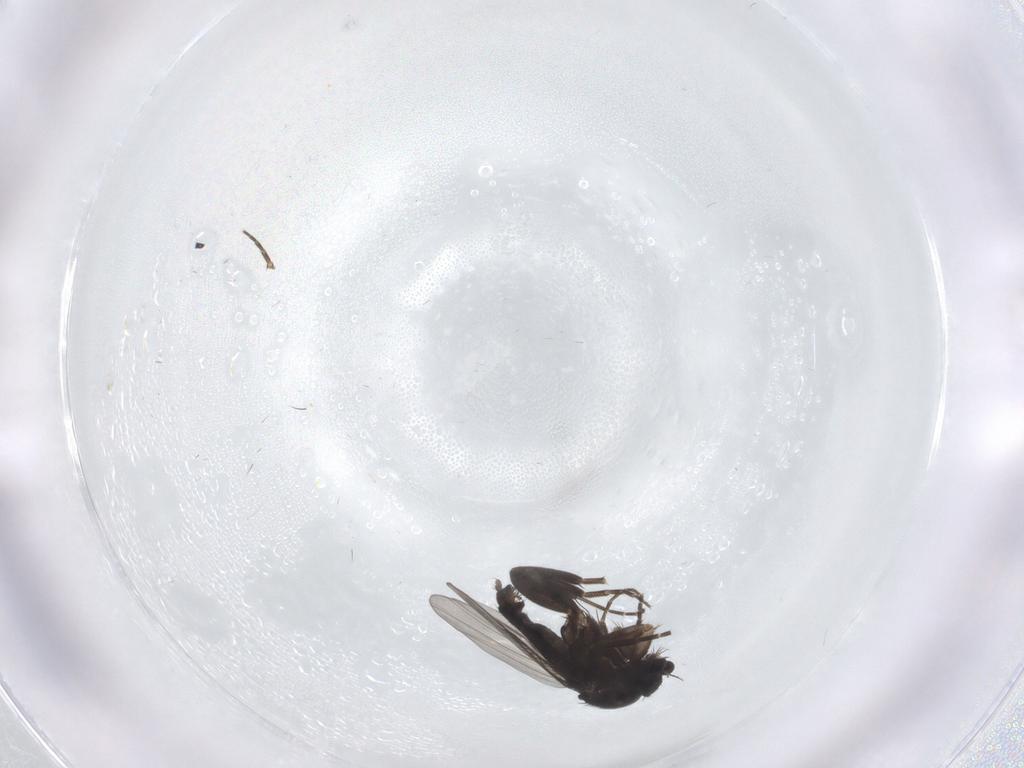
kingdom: Animalia
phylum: Arthropoda
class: Insecta
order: Diptera
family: Phoridae
